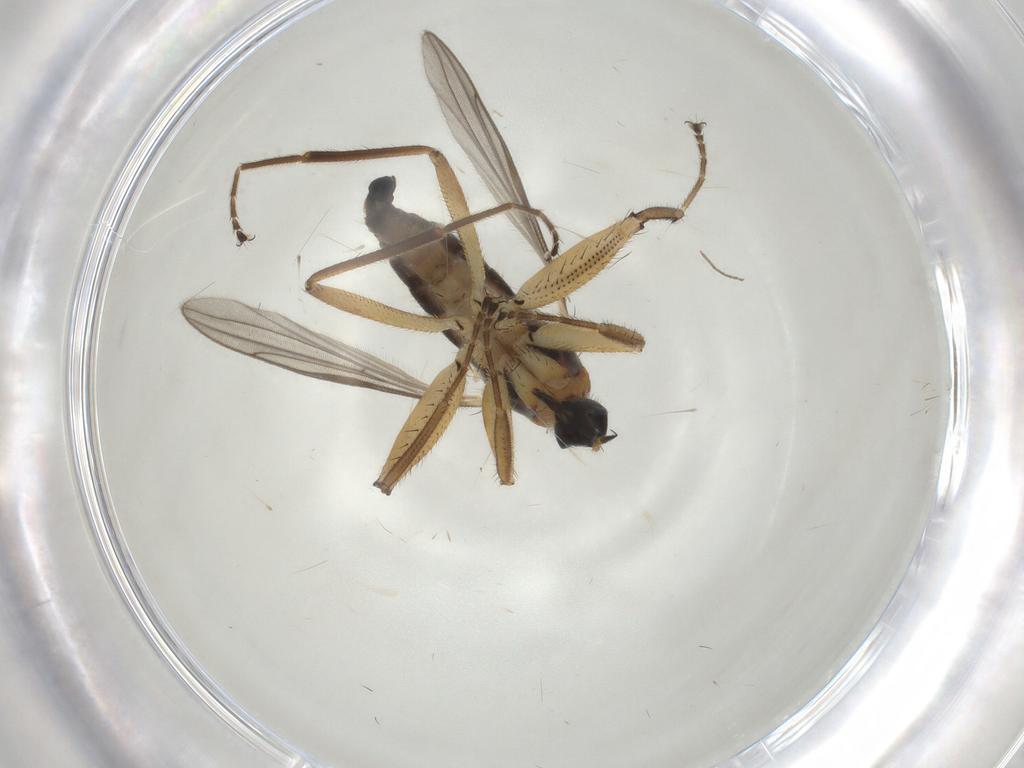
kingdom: Animalia
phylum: Arthropoda
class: Insecta
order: Diptera
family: Hybotidae
